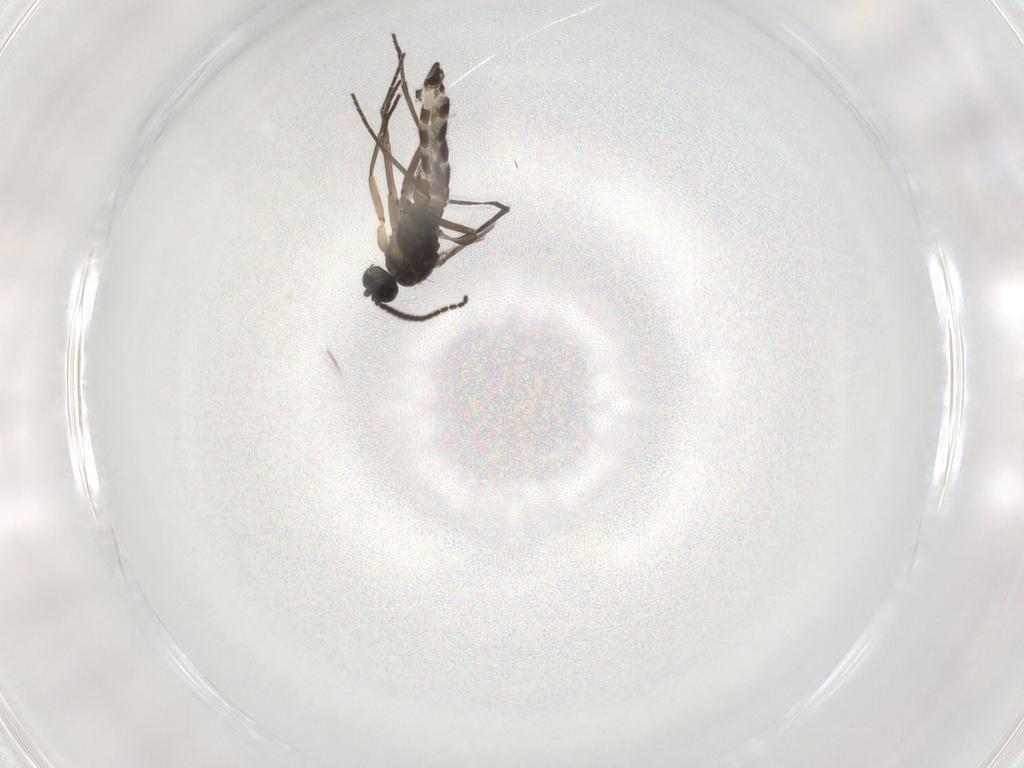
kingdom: Animalia
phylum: Arthropoda
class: Insecta
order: Diptera
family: Sciaridae
